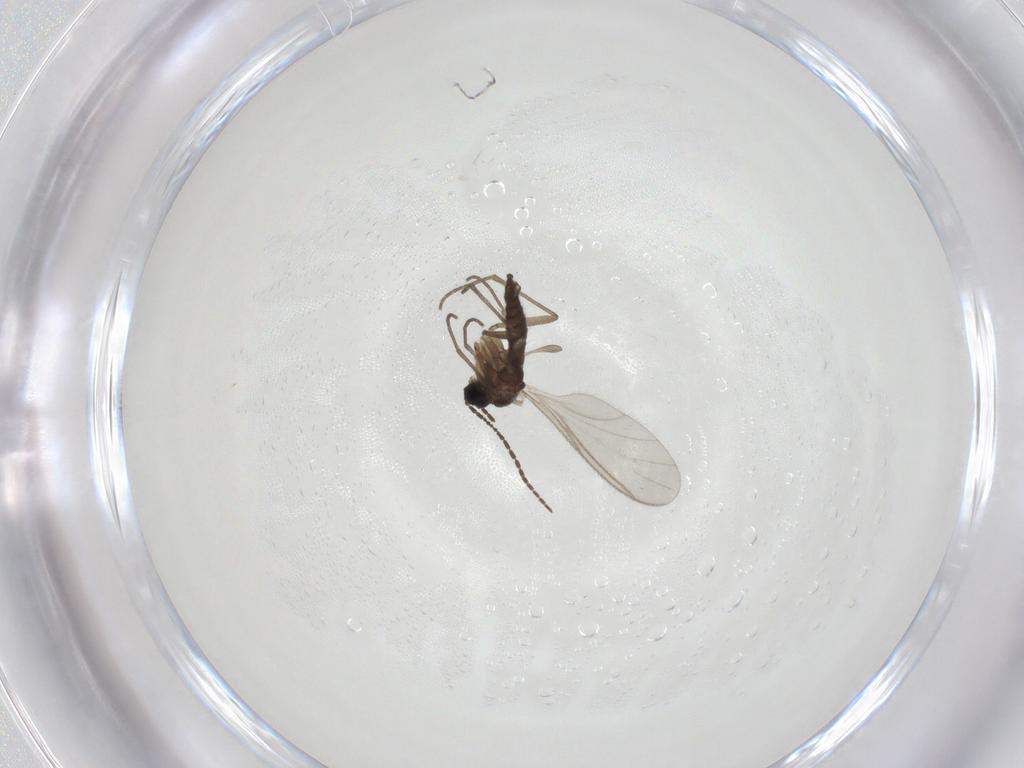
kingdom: Animalia
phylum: Arthropoda
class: Insecta
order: Diptera
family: Sciaridae
